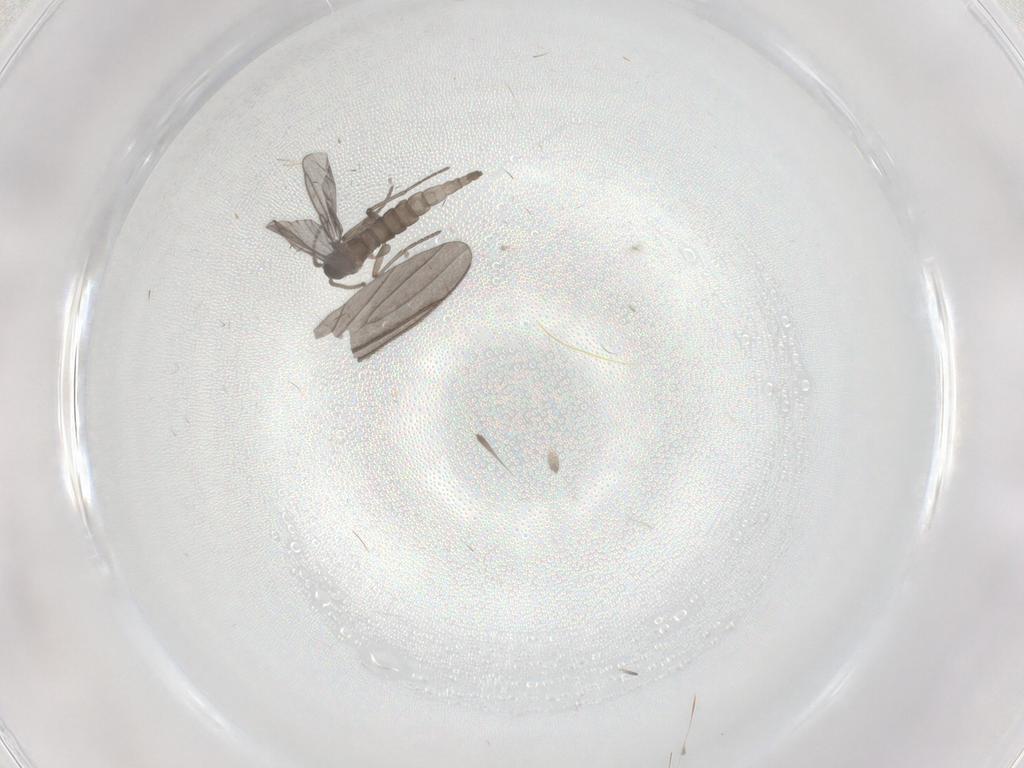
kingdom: Animalia
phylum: Arthropoda
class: Insecta
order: Diptera
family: Sciaridae
